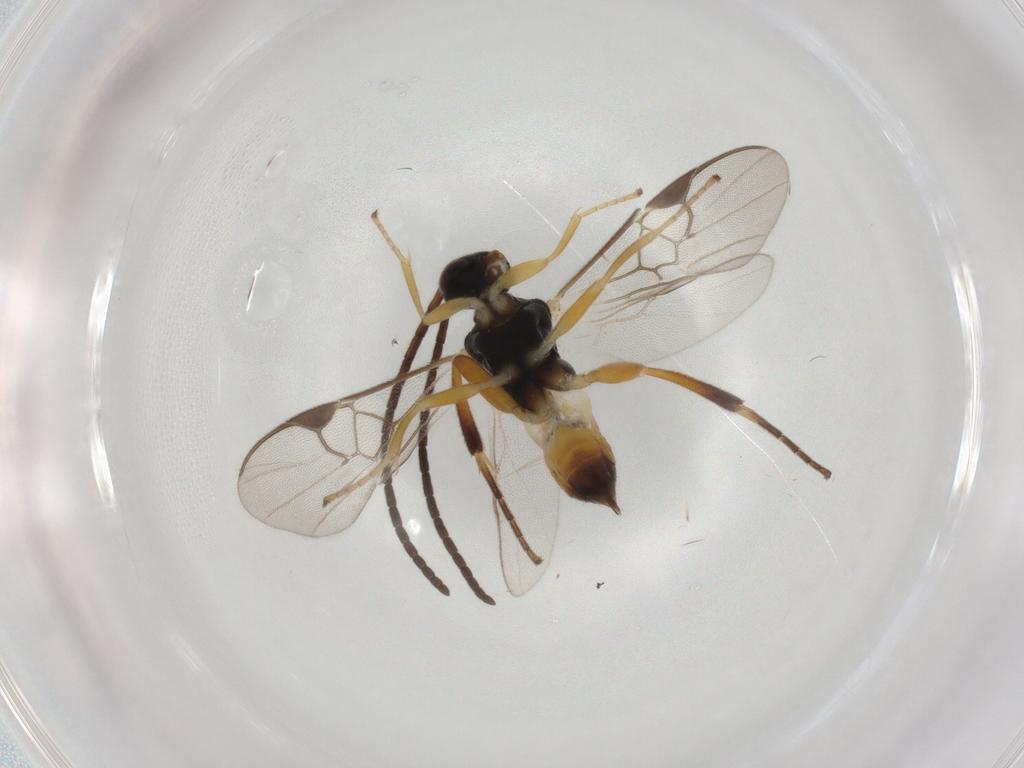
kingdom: Animalia
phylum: Arthropoda
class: Insecta
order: Hymenoptera
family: Braconidae
